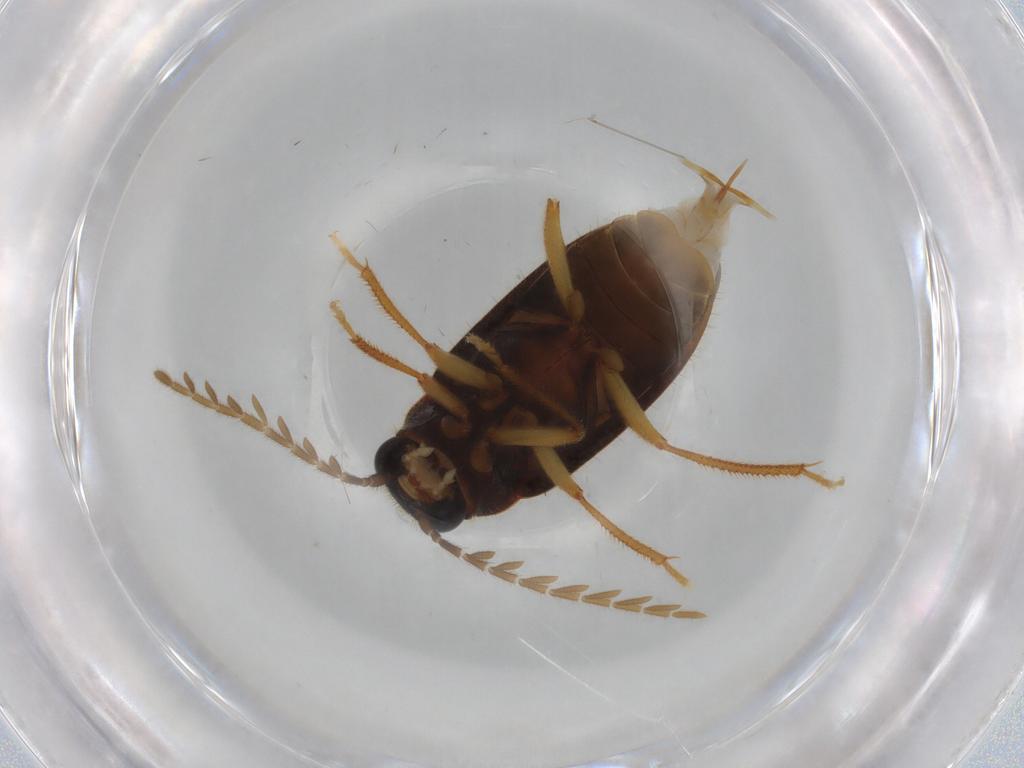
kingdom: Animalia
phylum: Arthropoda
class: Insecta
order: Coleoptera
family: Ptilodactylidae
